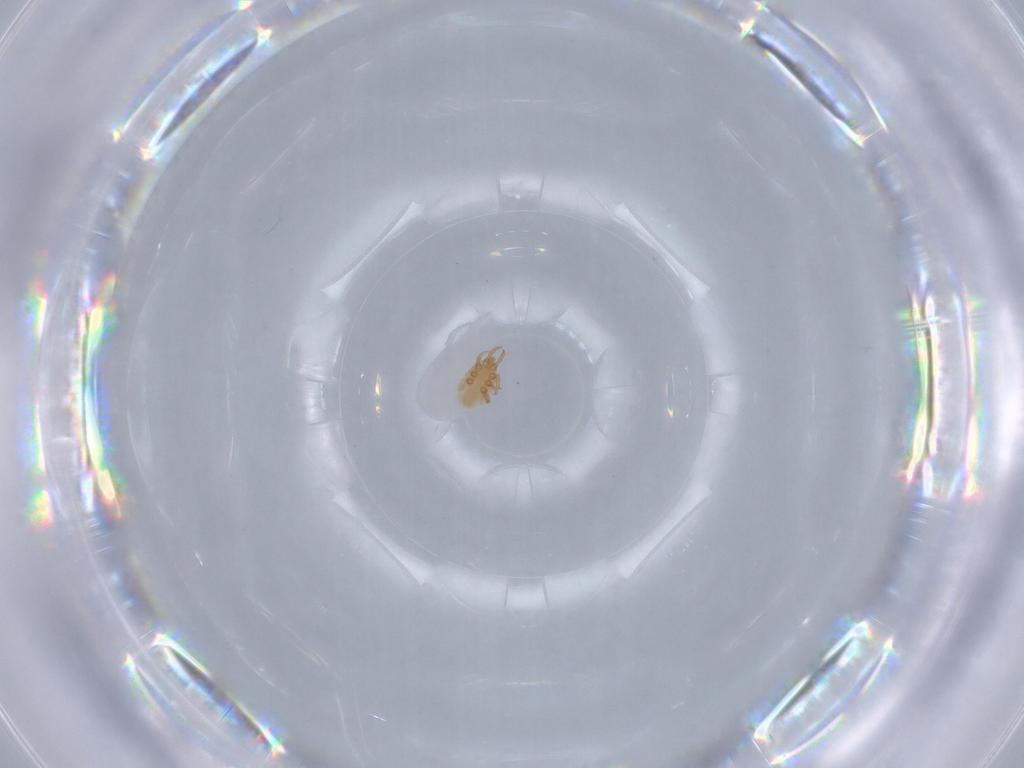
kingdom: Animalia
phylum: Arthropoda
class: Arachnida
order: Mesostigmata
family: Dinychidae
